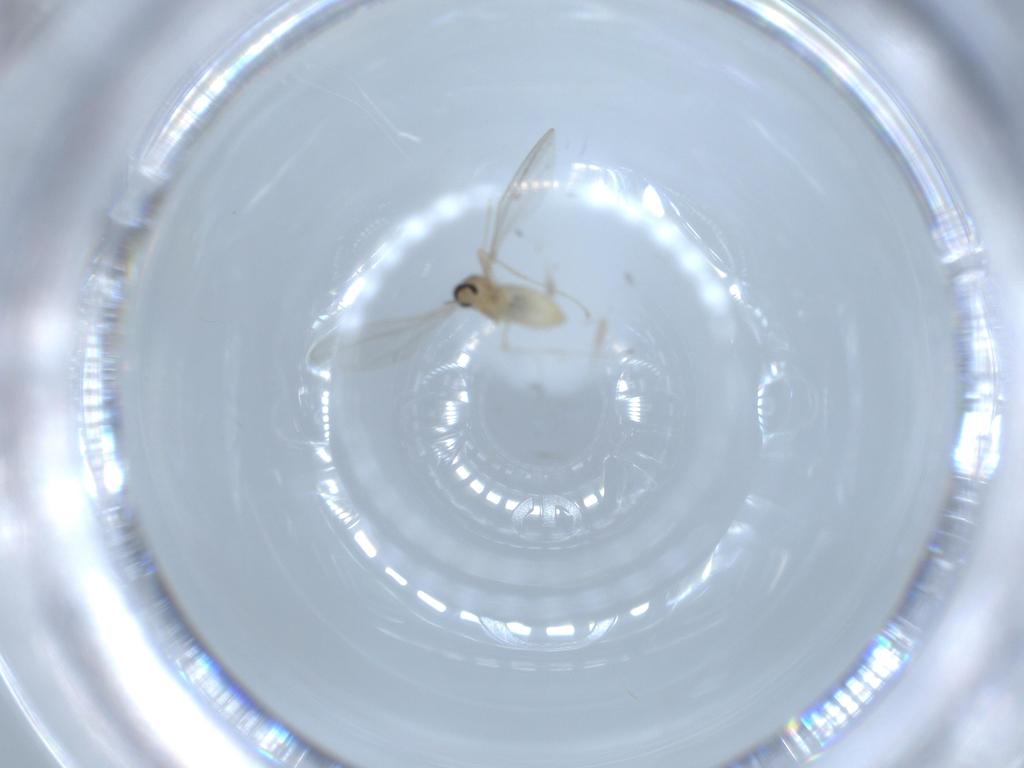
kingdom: Animalia
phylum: Arthropoda
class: Insecta
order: Diptera
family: Cecidomyiidae
